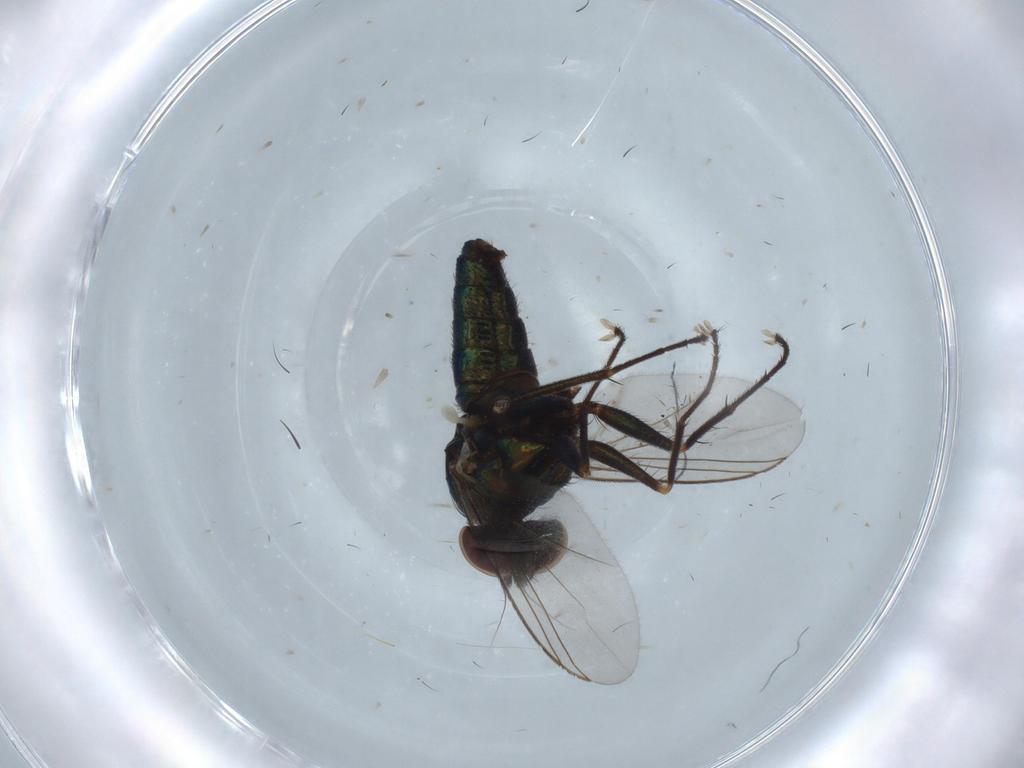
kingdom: Animalia
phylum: Arthropoda
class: Insecta
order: Diptera
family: Dolichopodidae
